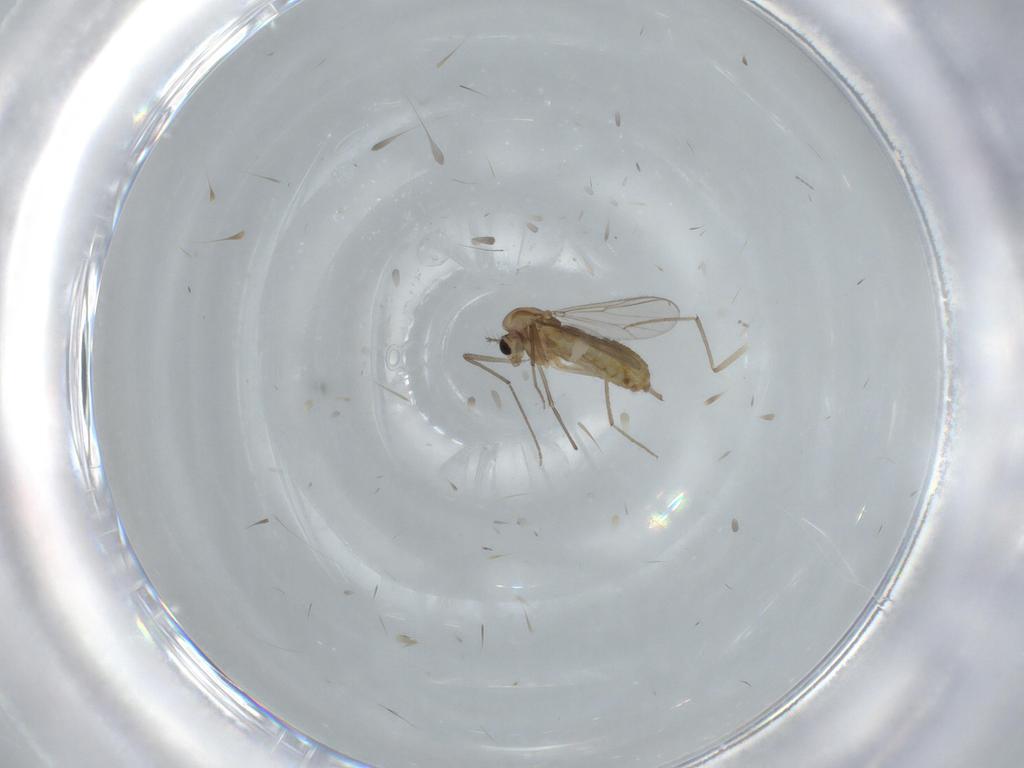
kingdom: Animalia
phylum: Arthropoda
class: Insecta
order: Diptera
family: Chironomidae
